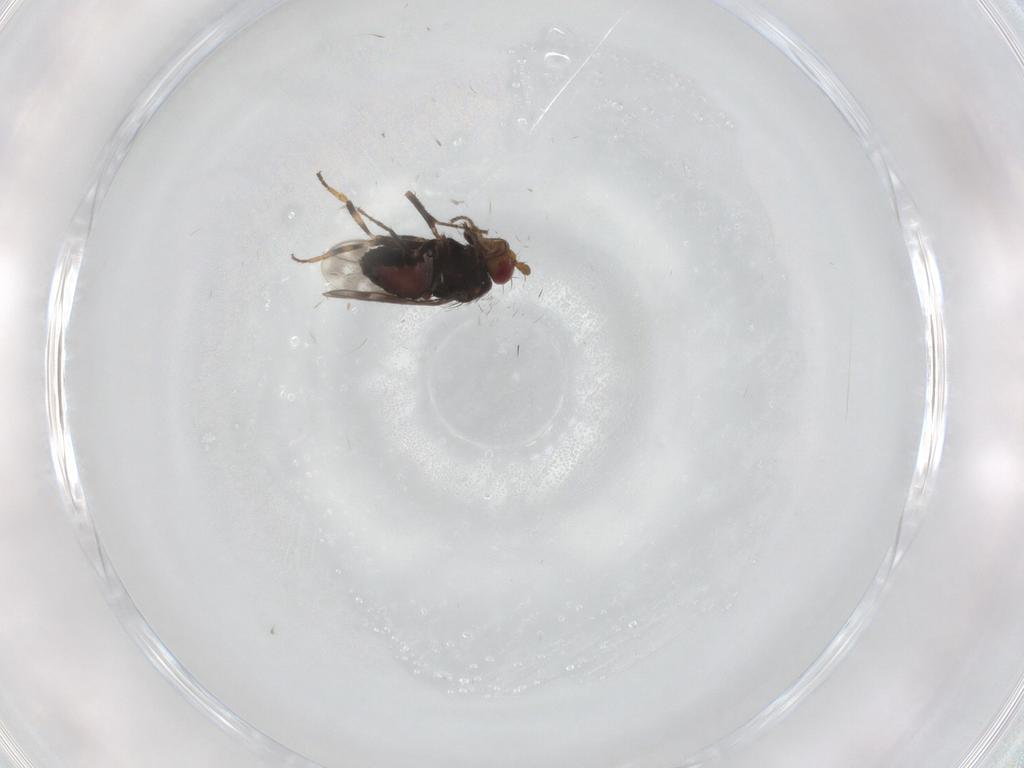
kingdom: Animalia
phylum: Arthropoda
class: Insecta
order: Diptera
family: Sphaeroceridae
